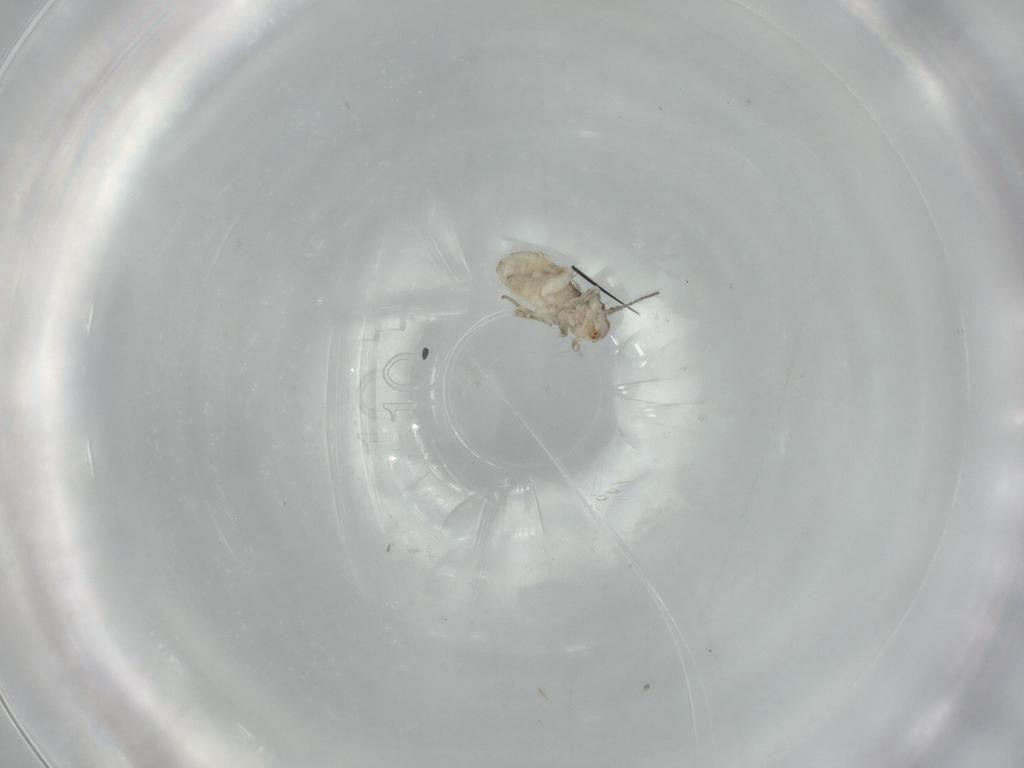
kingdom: Animalia
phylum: Arthropoda
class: Insecta
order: Psocodea
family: Lepidopsocidae
